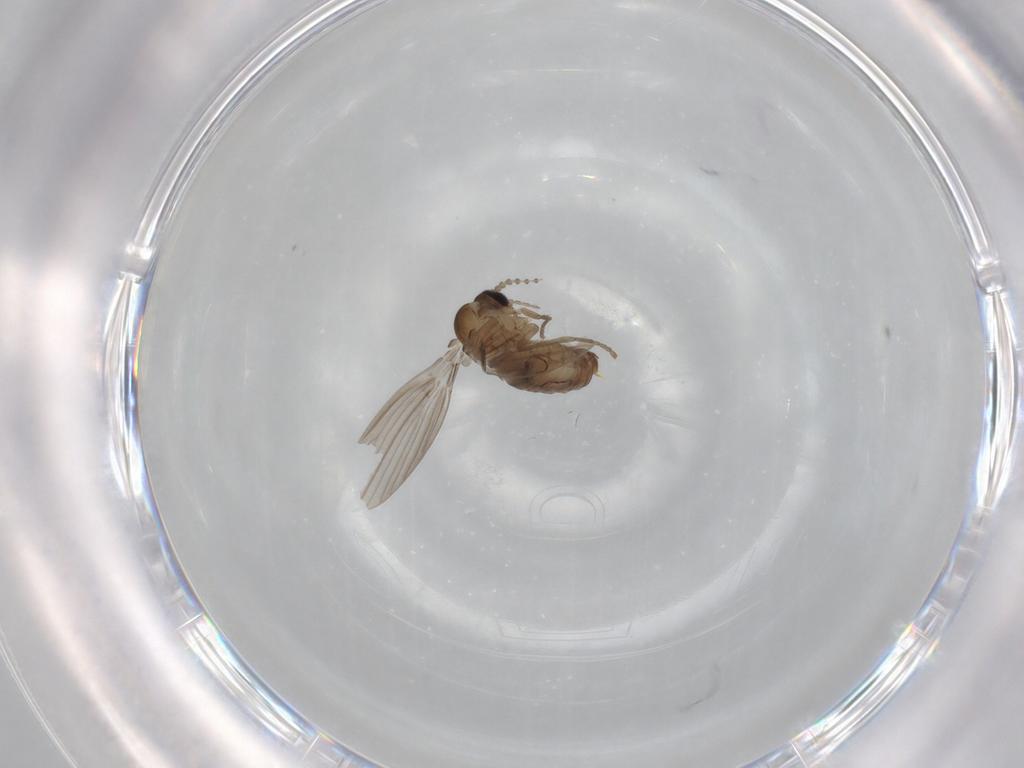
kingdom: Animalia
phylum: Arthropoda
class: Insecta
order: Diptera
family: Psychodidae
